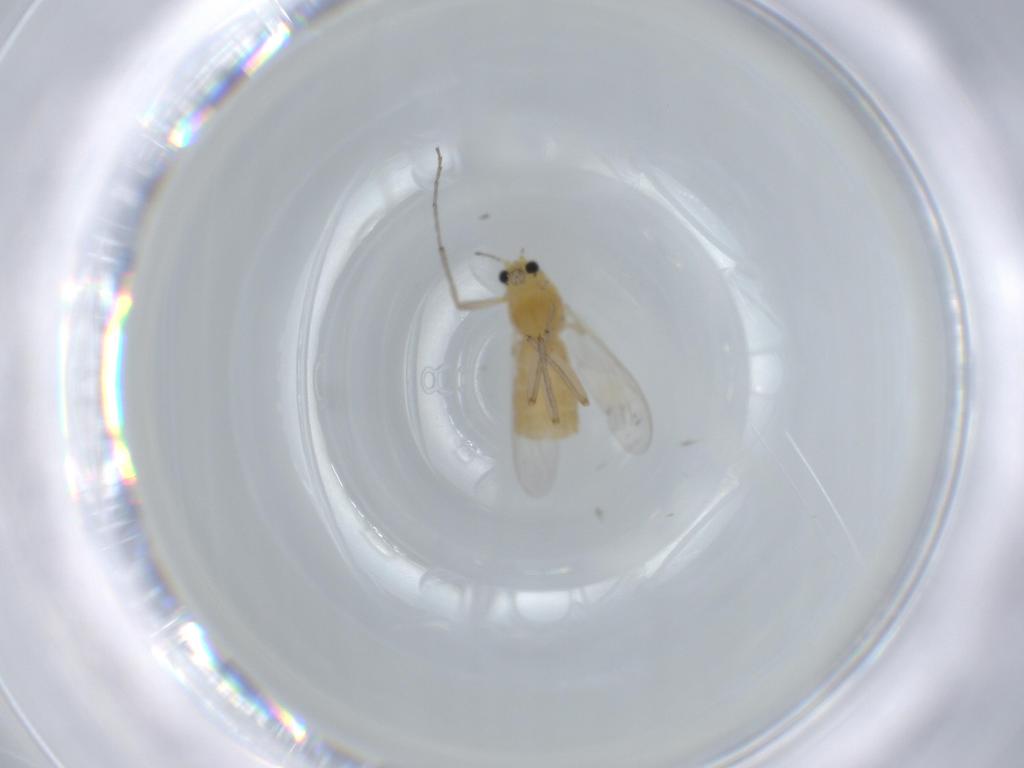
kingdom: Animalia
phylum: Arthropoda
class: Insecta
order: Diptera
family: Chironomidae
